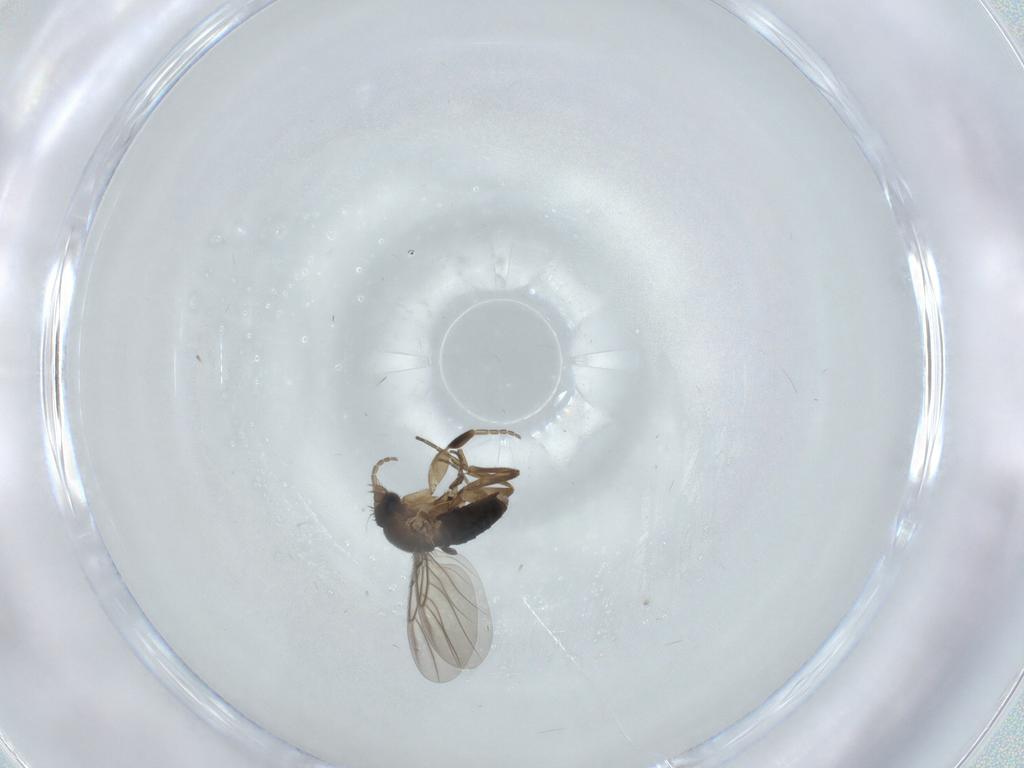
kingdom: Animalia
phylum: Arthropoda
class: Insecta
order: Diptera
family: Phoridae
